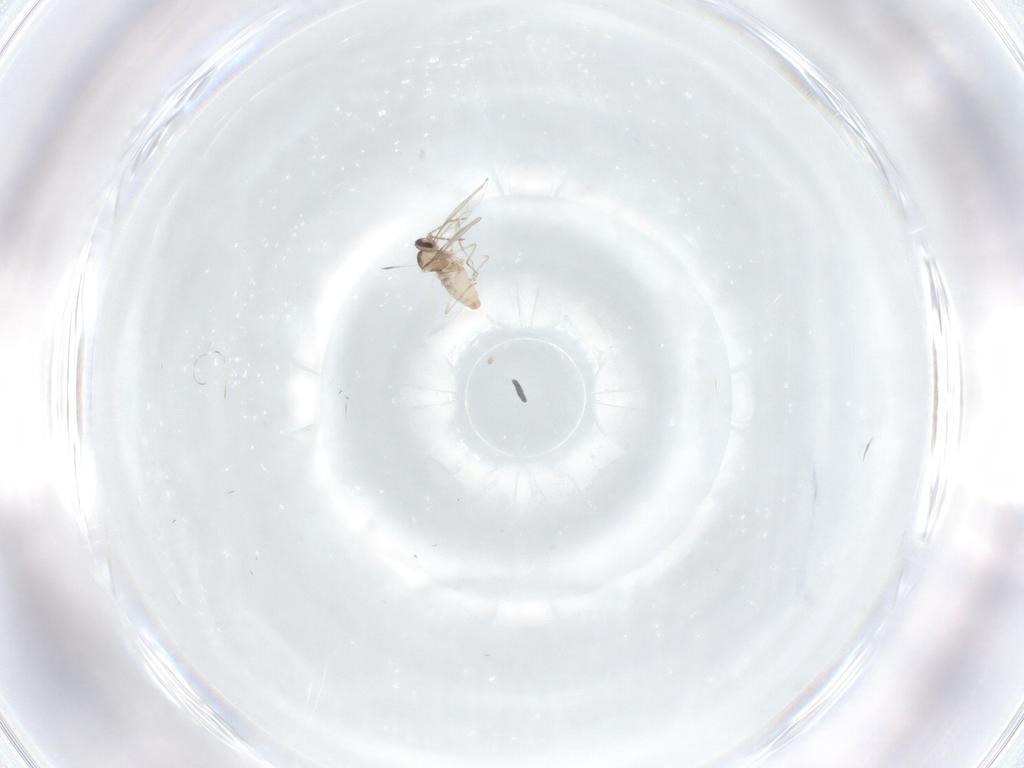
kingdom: Animalia
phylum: Arthropoda
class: Insecta
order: Diptera
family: Cecidomyiidae
